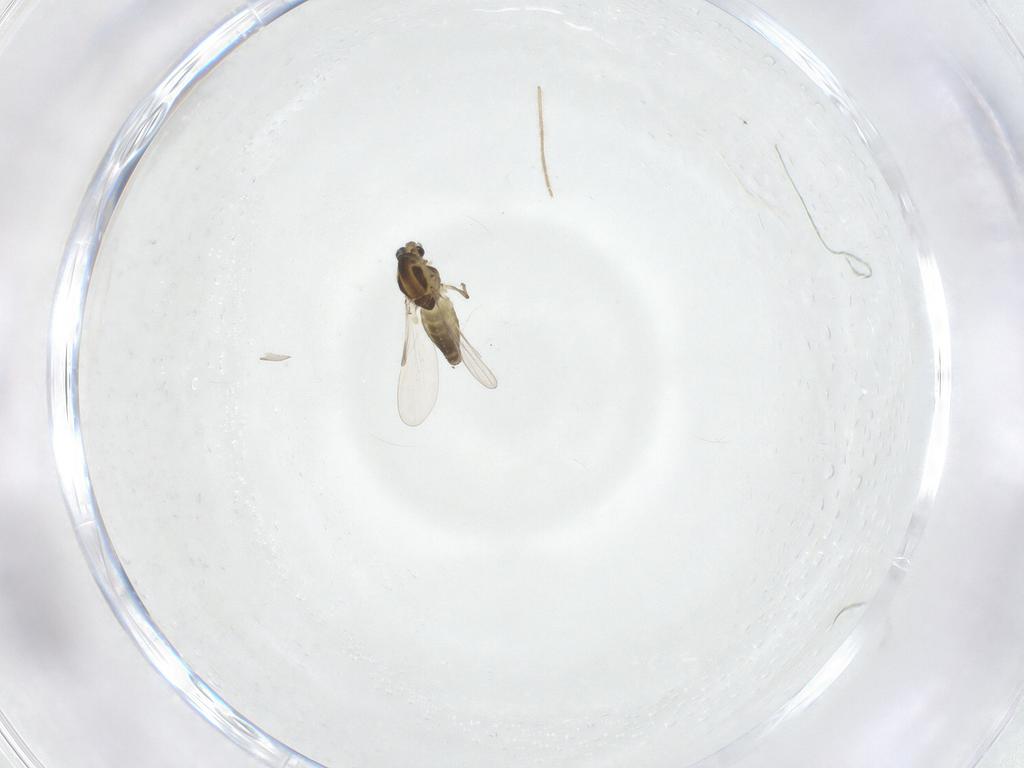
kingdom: Animalia
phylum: Arthropoda
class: Insecta
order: Diptera
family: Chironomidae
